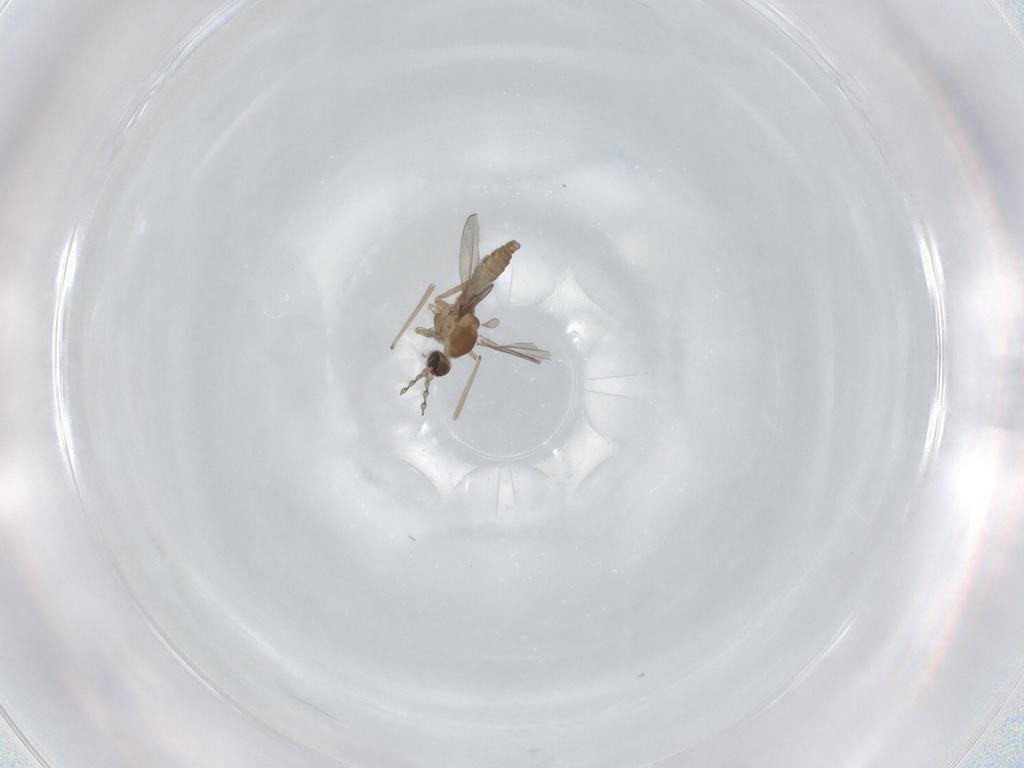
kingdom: Animalia
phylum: Arthropoda
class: Insecta
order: Diptera
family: Cecidomyiidae
